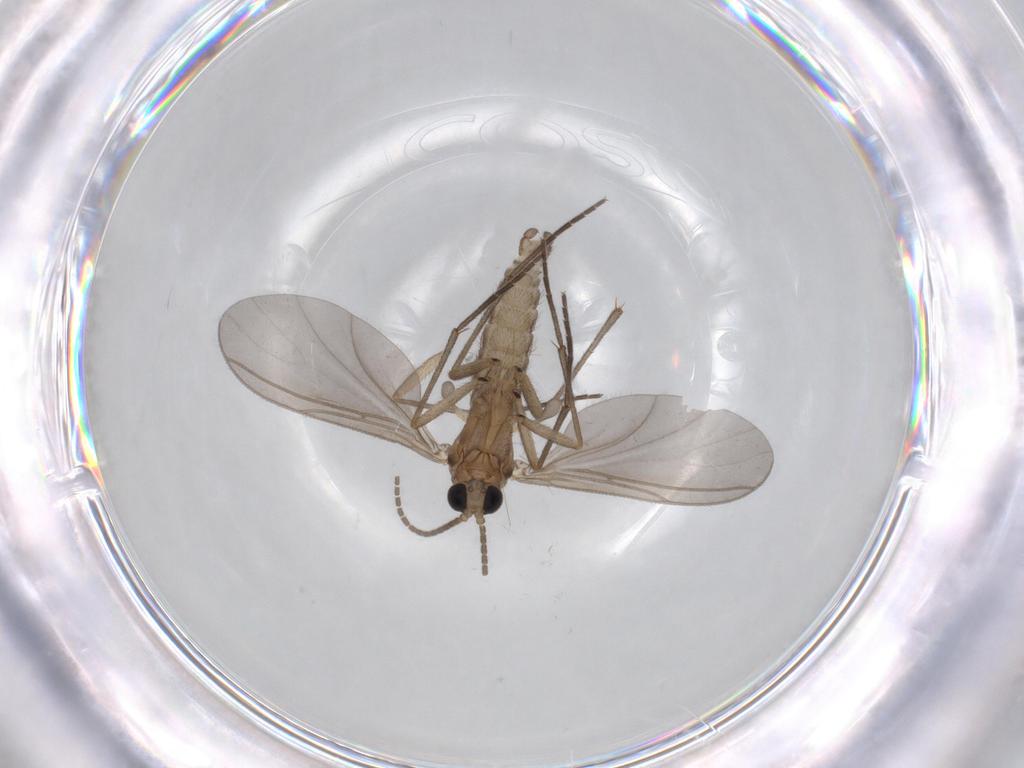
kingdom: Animalia
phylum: Arthropoda
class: Insecta
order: Diptera
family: Sciaridae
